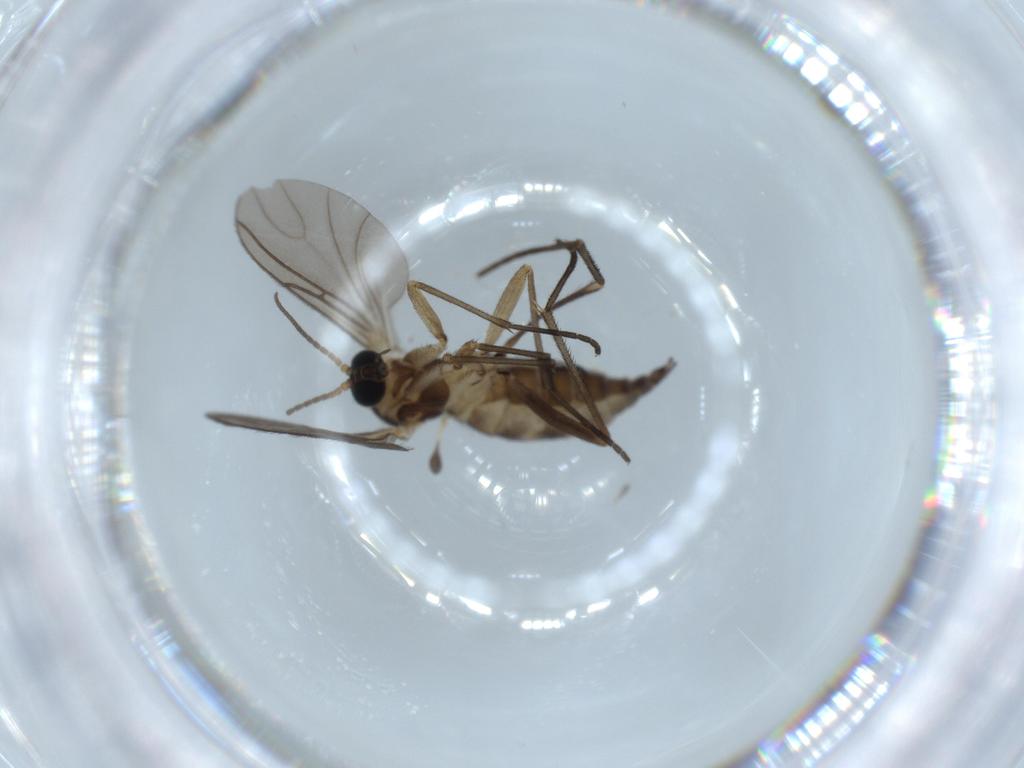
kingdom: Animalia
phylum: Arthropoda
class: Insecta
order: Diptera
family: Sciaridae
